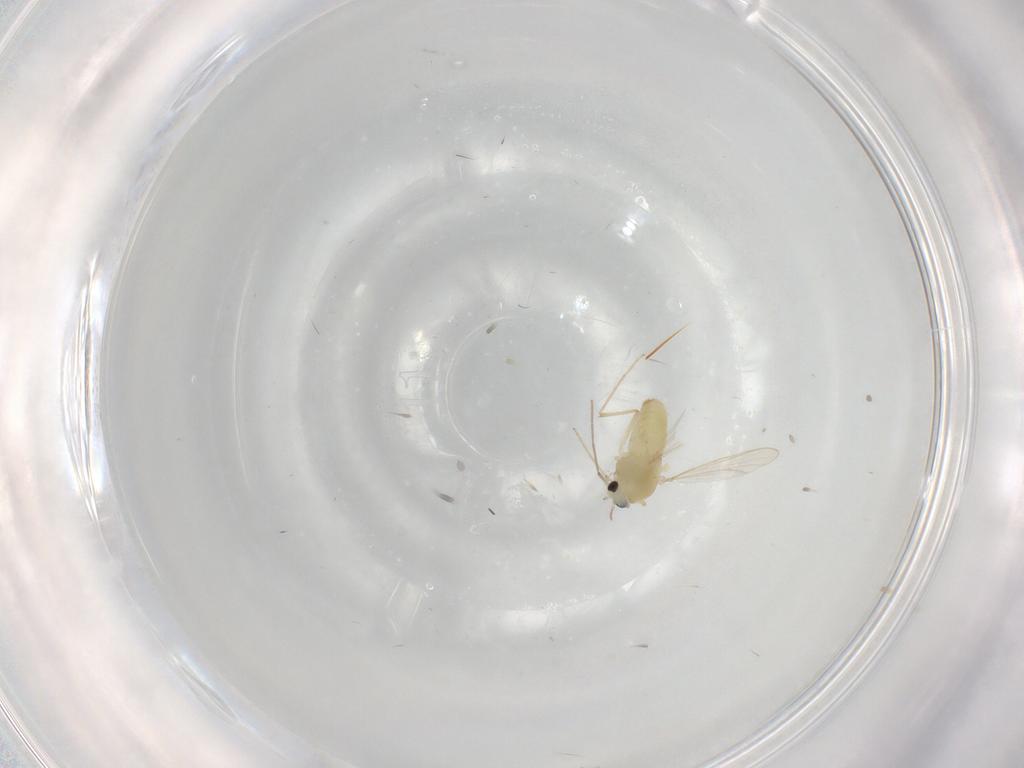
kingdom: Animalia
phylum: Arthropoda
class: Insecta
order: Diptera
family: Chironomidae
